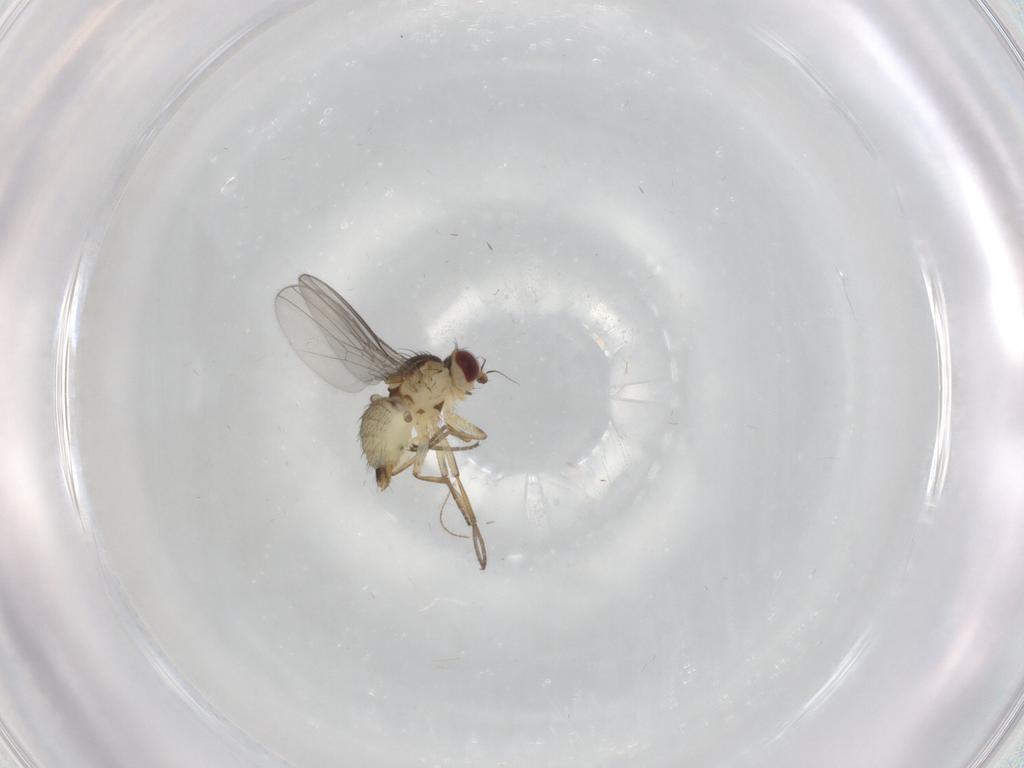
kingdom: Animalia
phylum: Arthropoda
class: Insecta
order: Diptera
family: Agromyzidae
